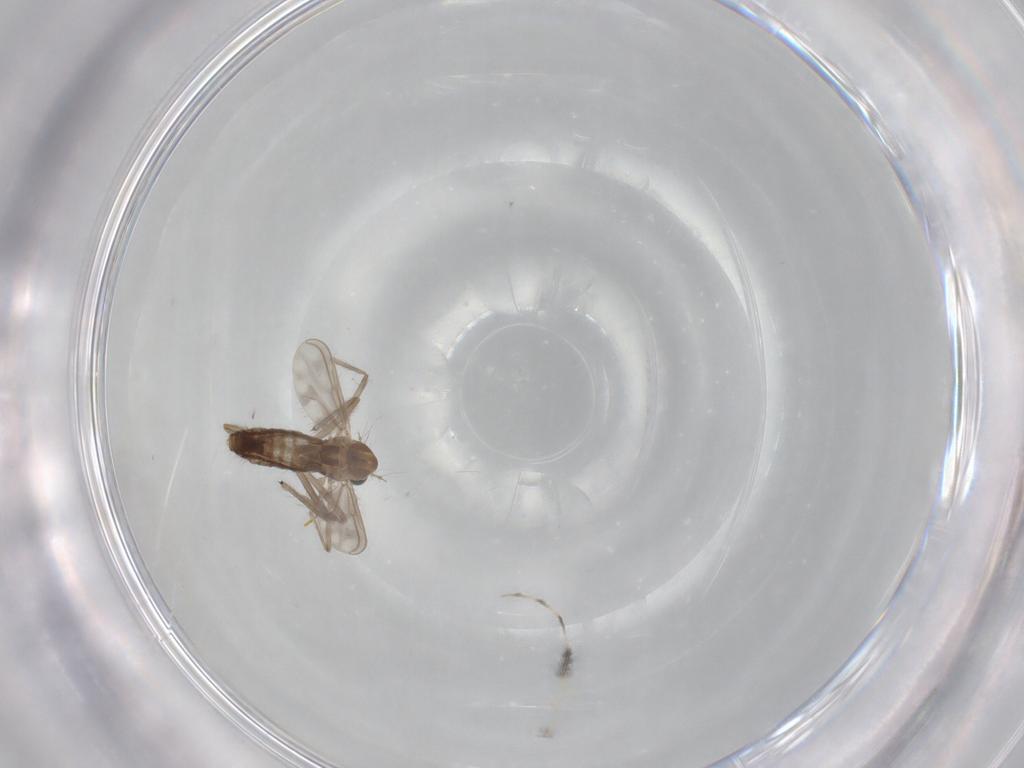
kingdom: Animalia
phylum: Arthropoda
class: Insecta
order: Diptera
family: Chironomidae
